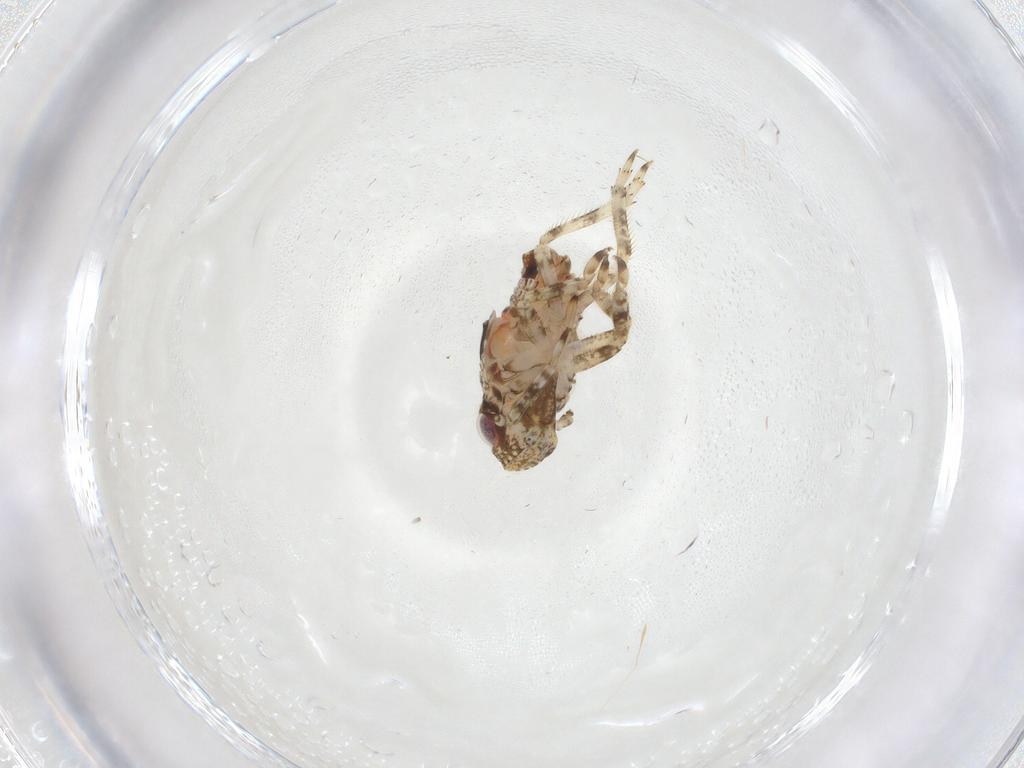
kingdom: Animalia
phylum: Arthropoda
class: Insecta
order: Hemiptera
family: Nogodinidae
